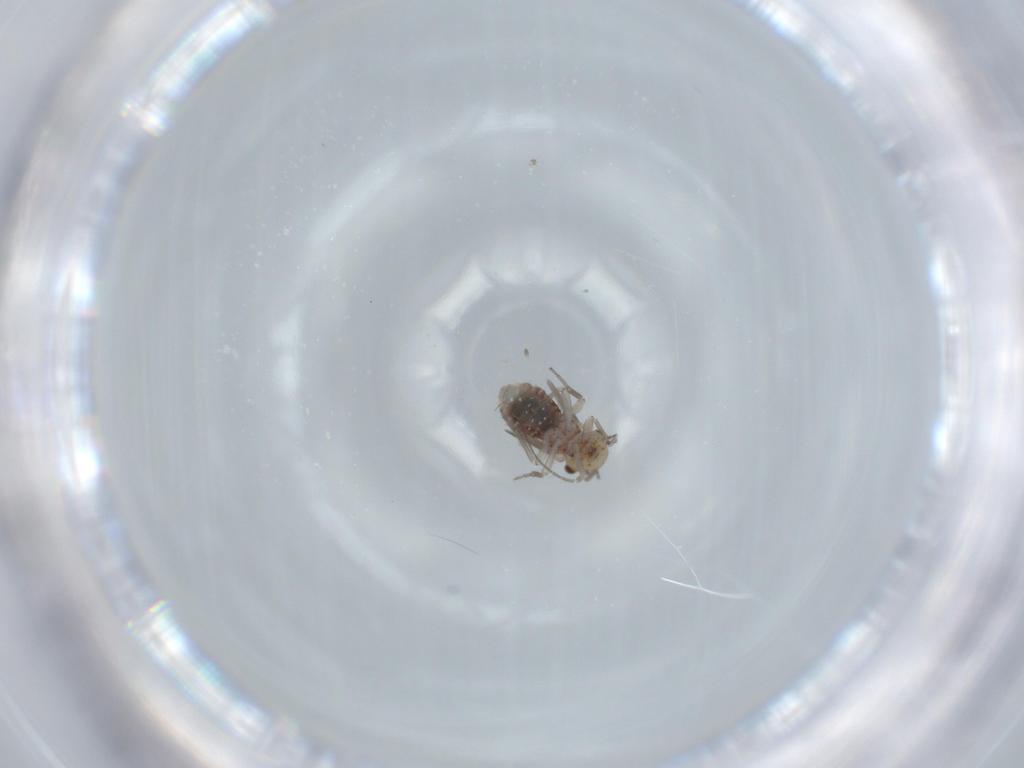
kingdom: Animalia
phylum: Arthropoda
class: Insecta
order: Psocodea
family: Lachesillidae
